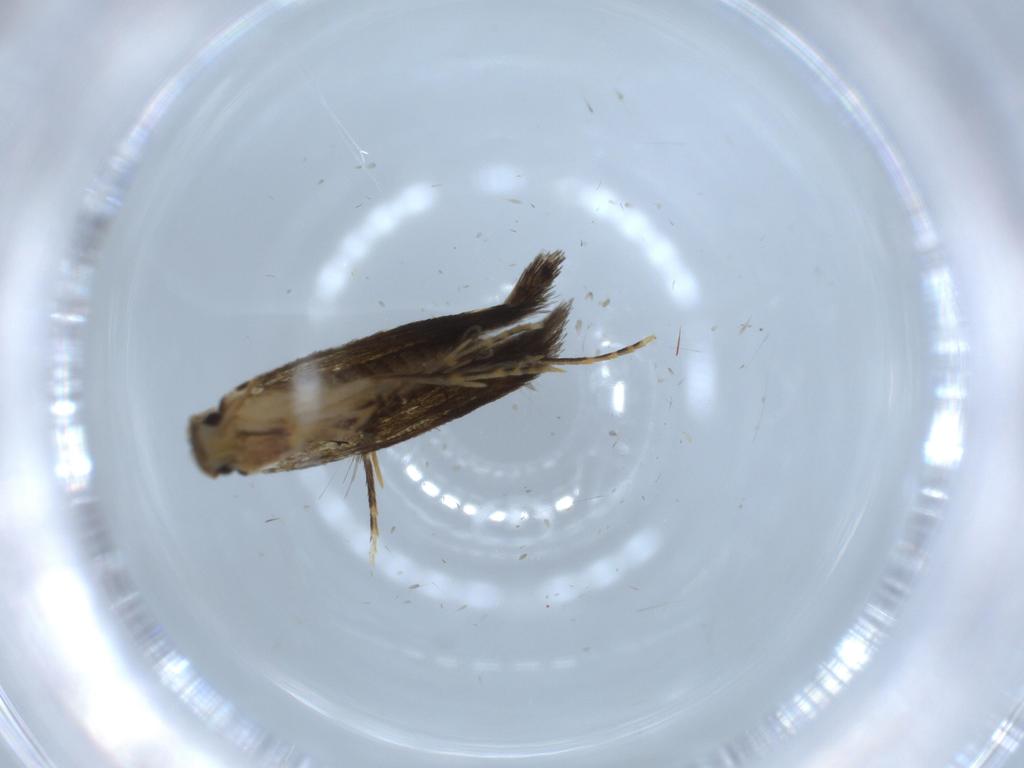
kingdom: Animalia
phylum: Arthropoda
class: Insecta
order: Lepidoptera
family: Tineidae
